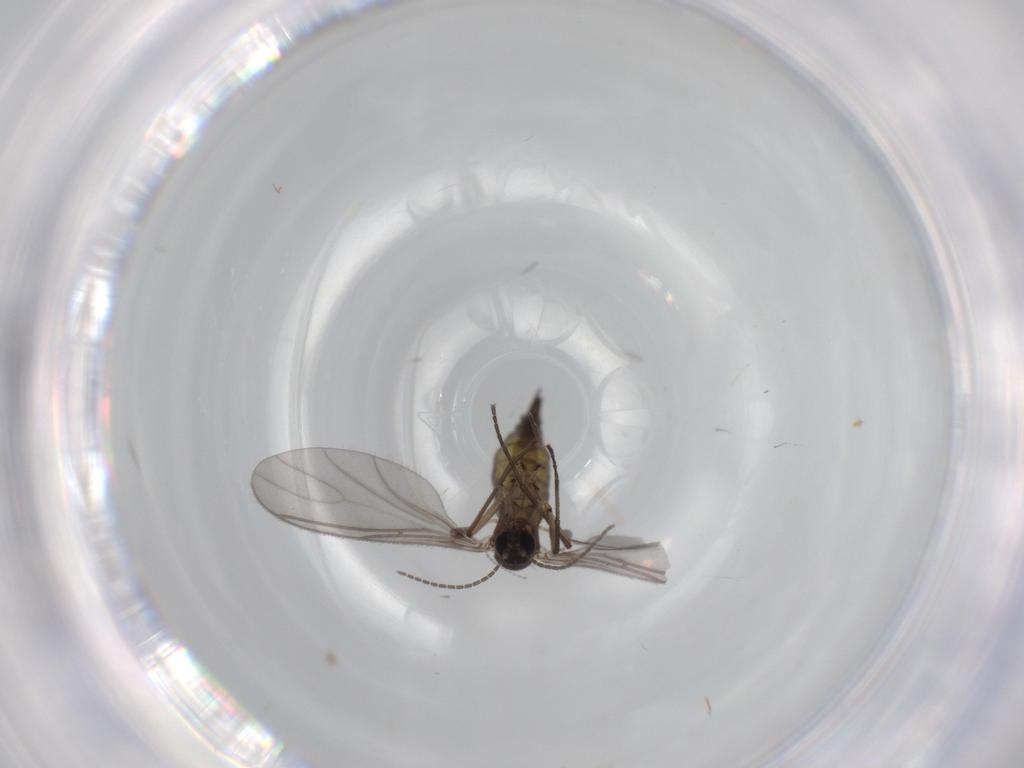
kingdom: Animalia
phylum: Arthropoda
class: Insecta
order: Diptera
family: Sciaridae
